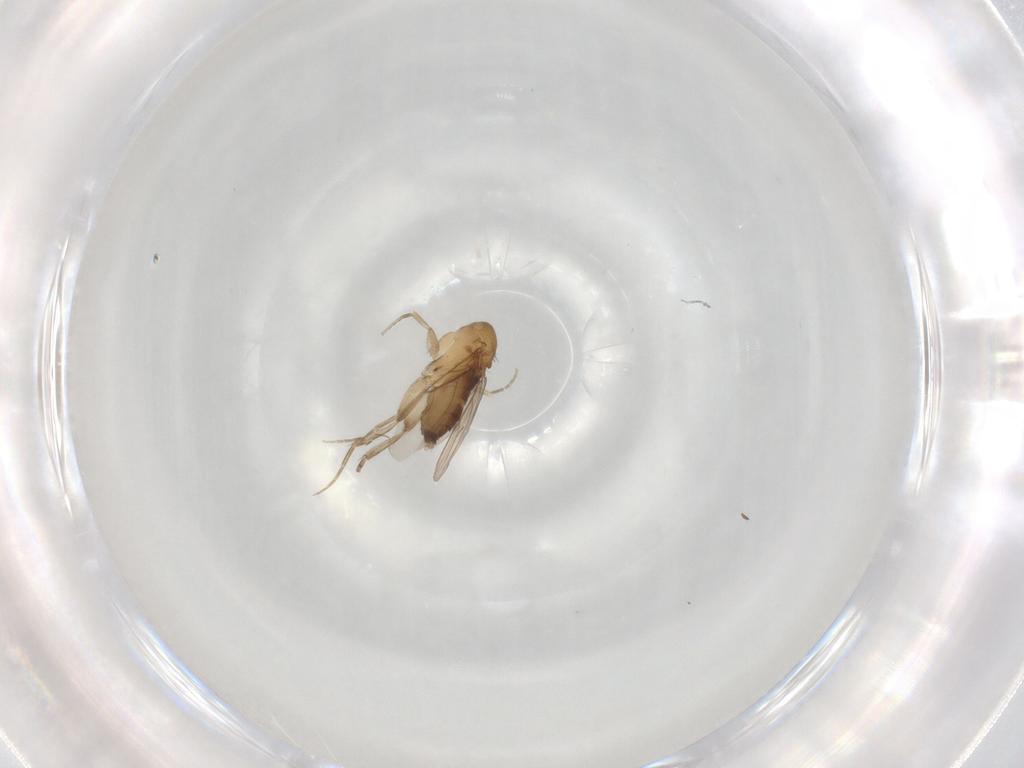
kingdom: Animalia
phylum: Arthropoda
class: Insecta
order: Diptera
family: Phoridae
